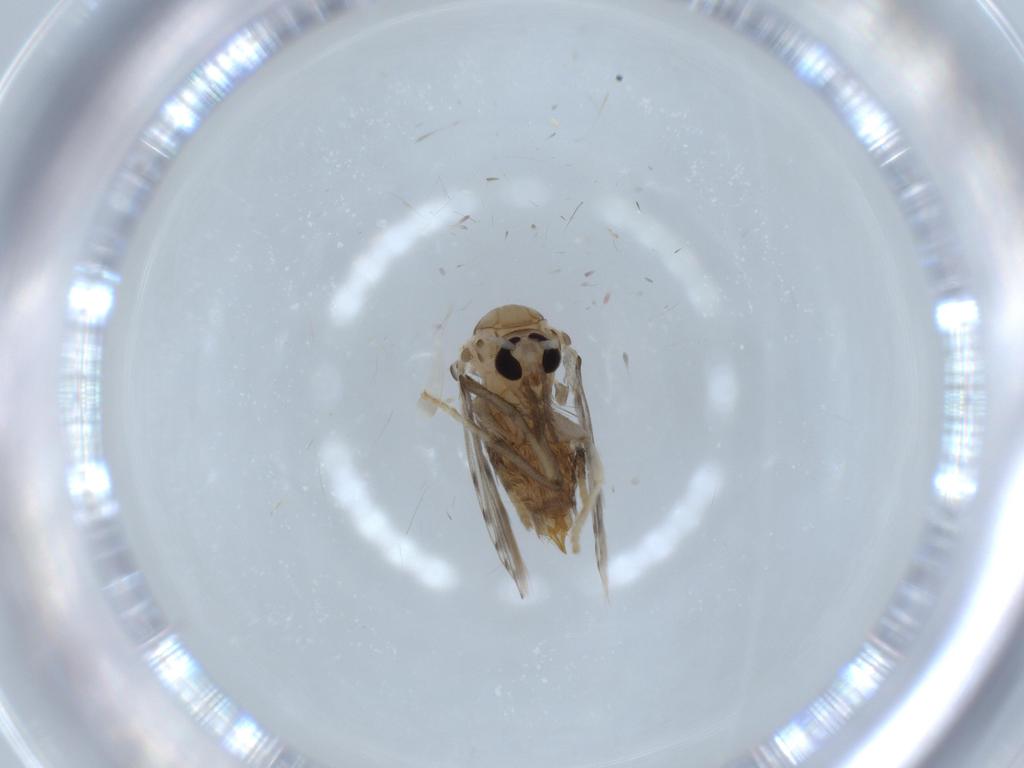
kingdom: Animalia
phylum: Arthropoda
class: Insecta
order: Diptera
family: Psychodidae
